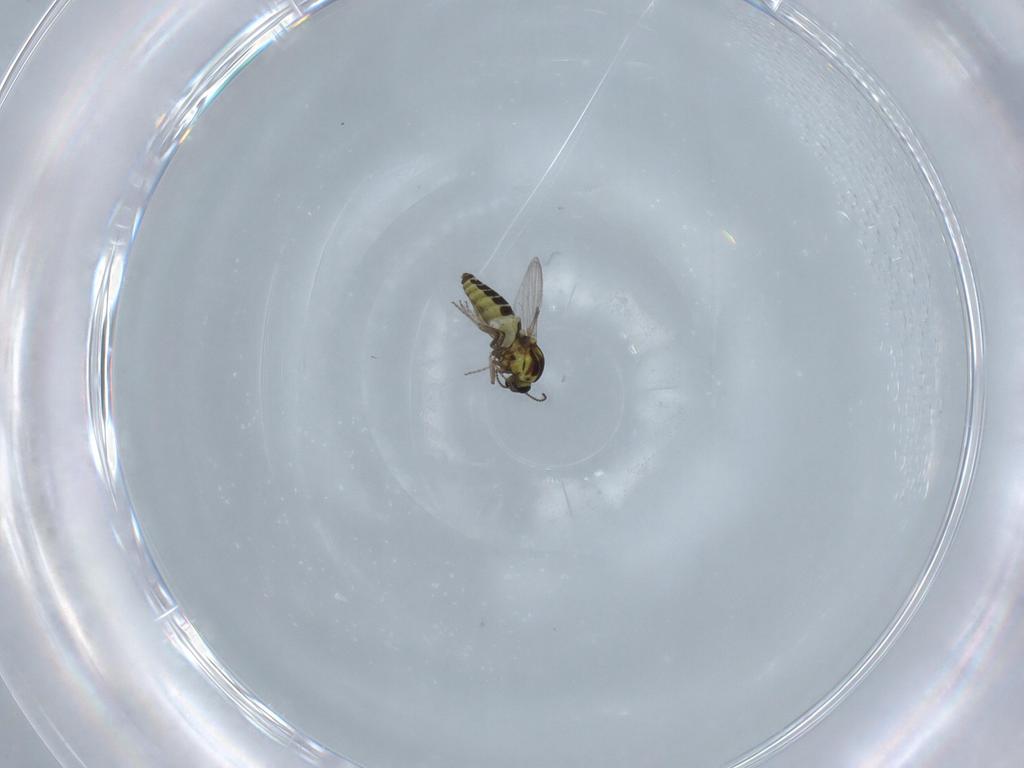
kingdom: Animalia
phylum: Arthropoda
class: Insecta
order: Diptera
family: Ceratopogonidae
